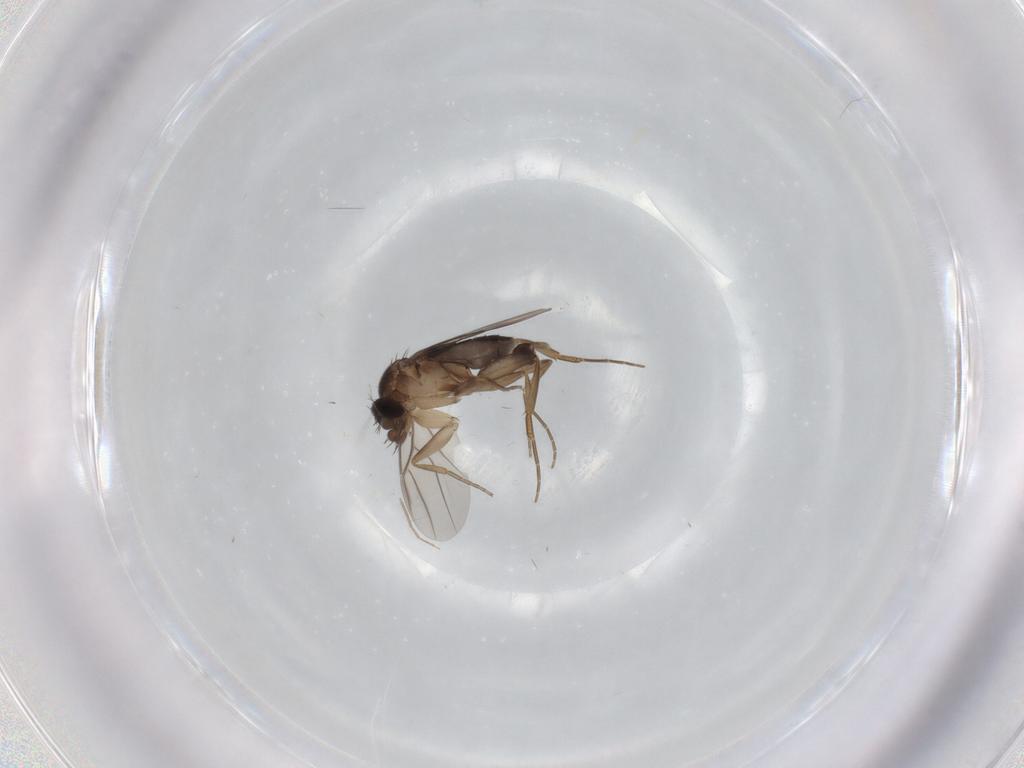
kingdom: Animalia
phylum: Arthropoda
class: Insecta
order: Diptera
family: Phoridae
